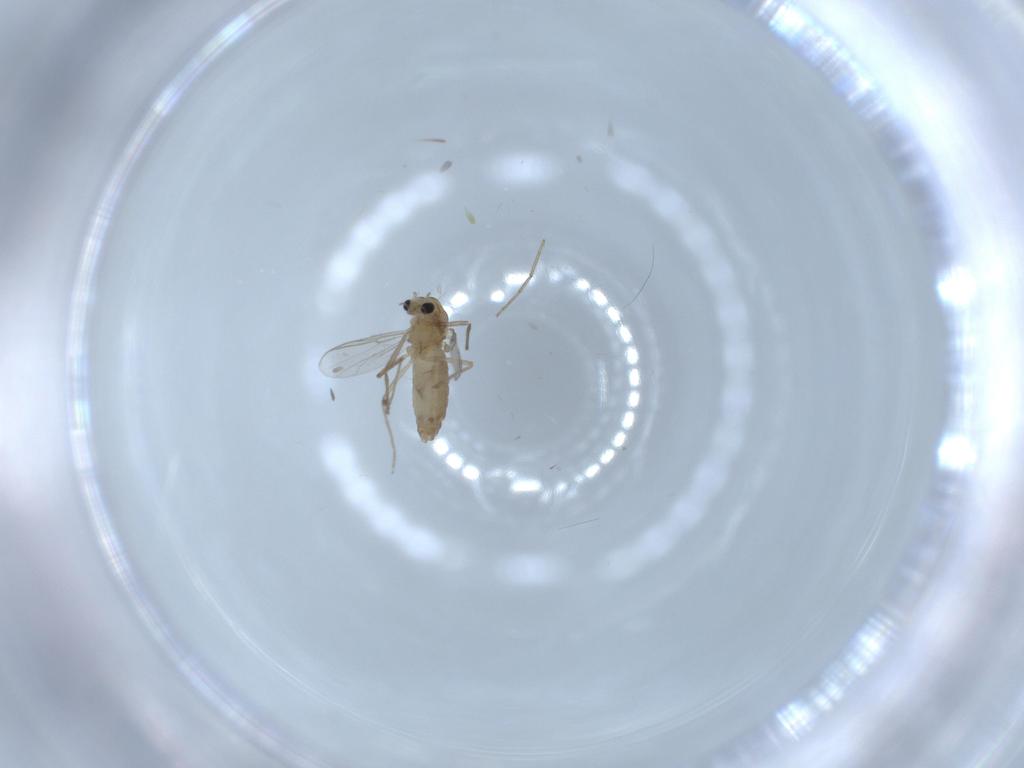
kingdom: Animalia
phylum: Arthropoda
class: Insecta
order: Diptera
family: Chironomidae
